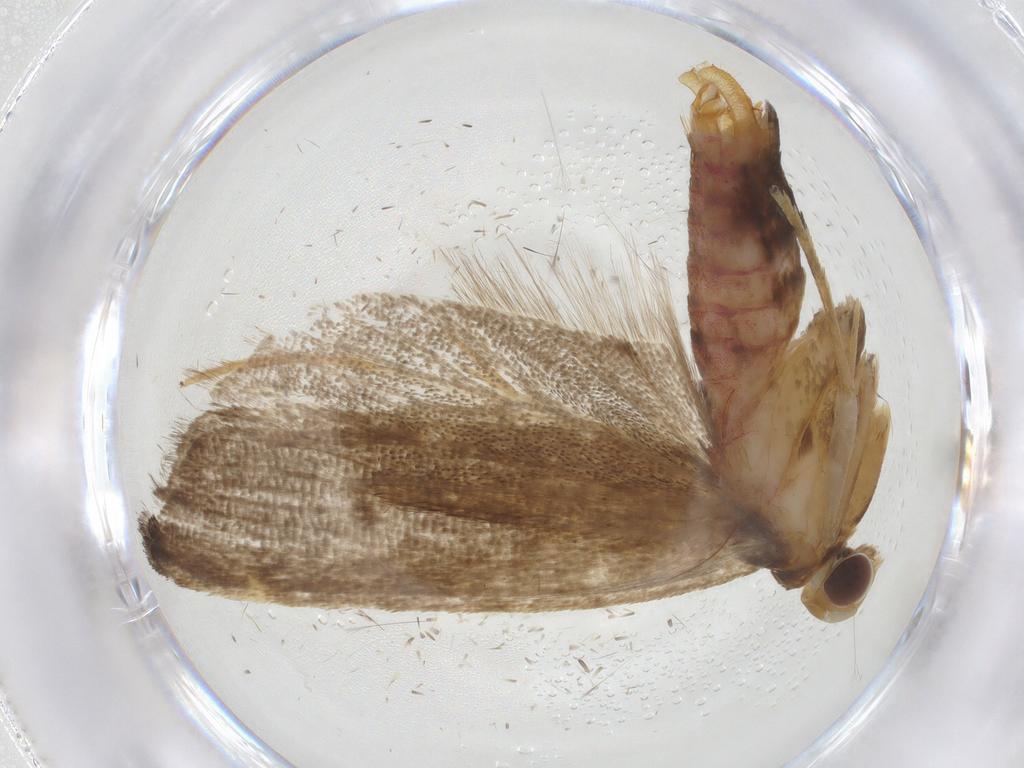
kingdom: Animalia
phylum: Arthropoda
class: Insecta
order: Lepidoptera
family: Lecithoceridae
